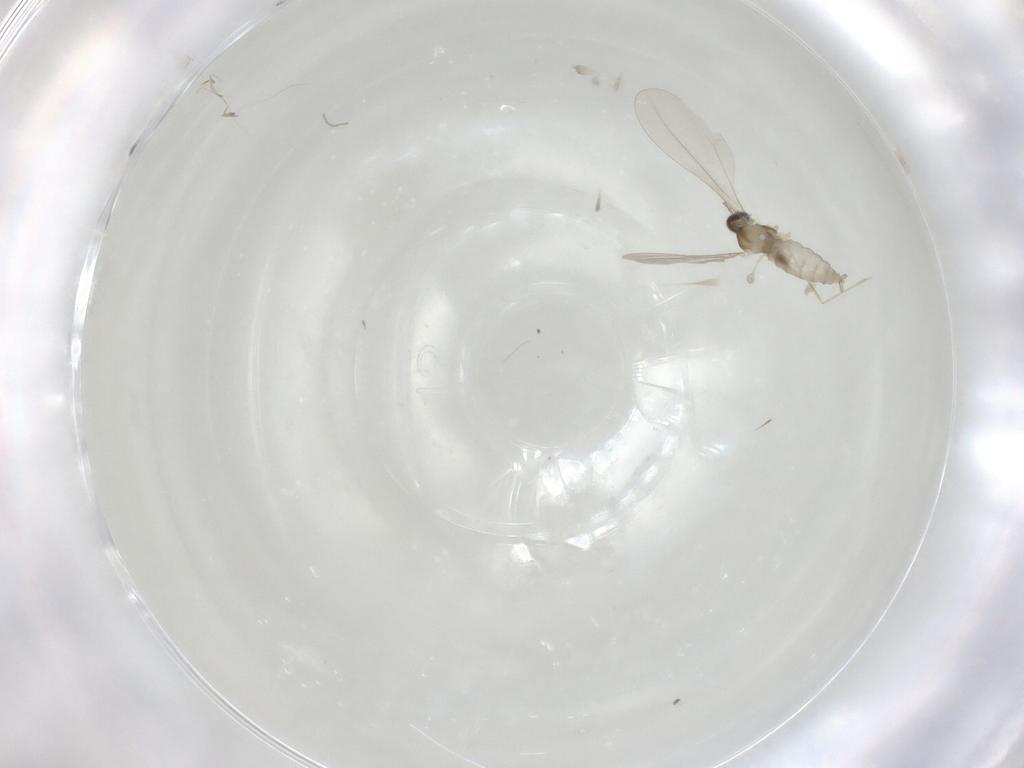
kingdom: Animalia
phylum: Arthropoda
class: Insecta
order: Diptera
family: Cecidomyiidae
